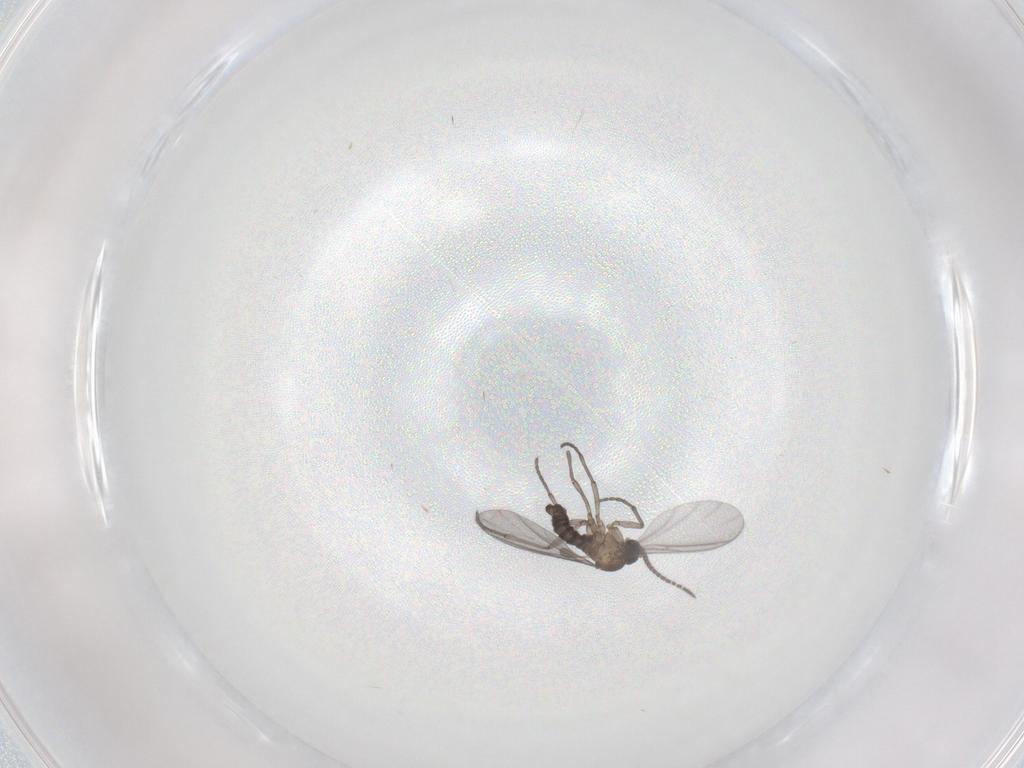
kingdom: Animalia
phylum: Arthropoda
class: Insecta
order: Diptera
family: Sciaridae
